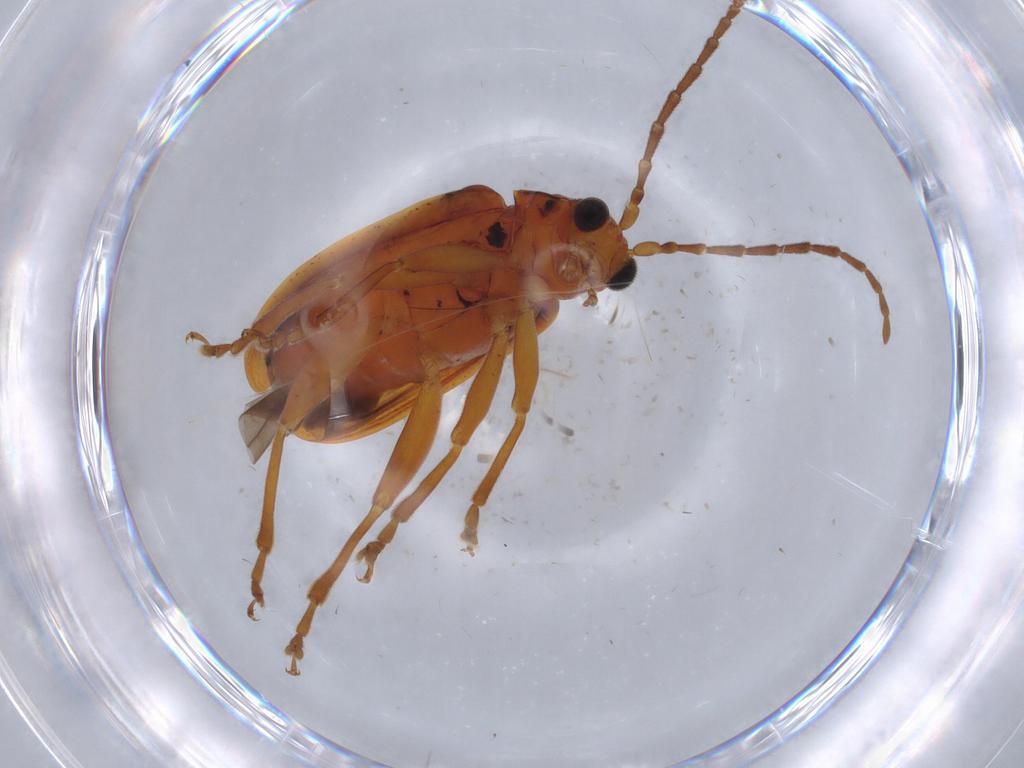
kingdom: Animalia
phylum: Arthropoda
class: Insecta
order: Coleoptera
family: Chrysomelidae
